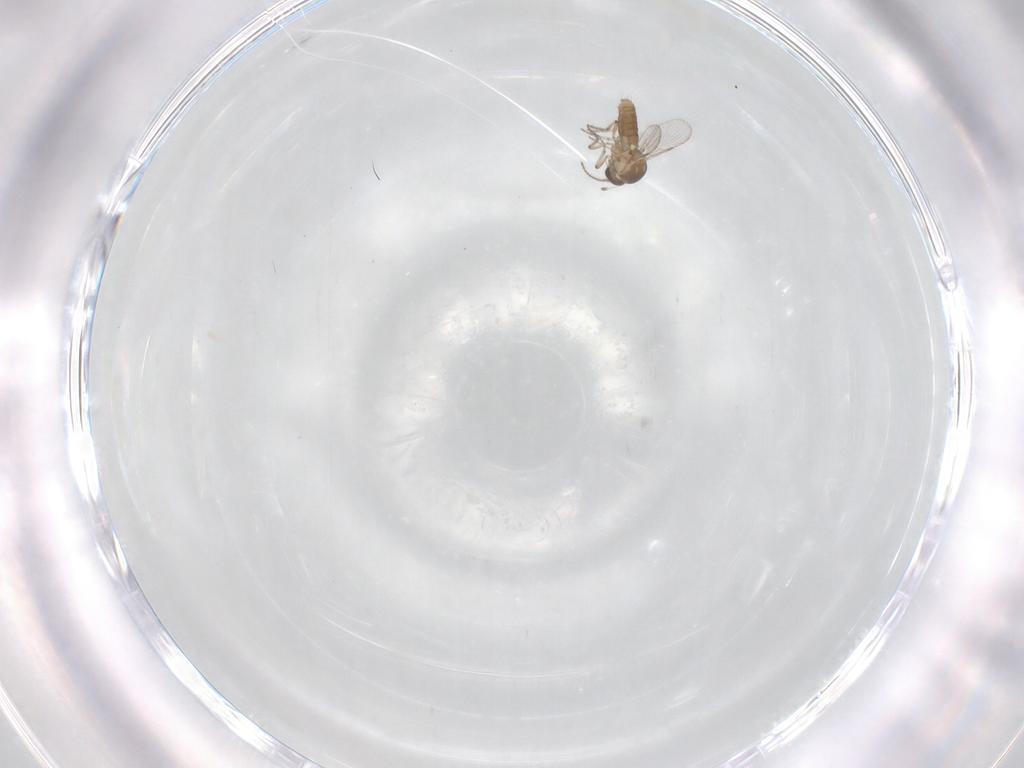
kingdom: Animalia
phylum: Arthropoda
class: Insecta
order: Diptera
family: Ceratopogonidae
